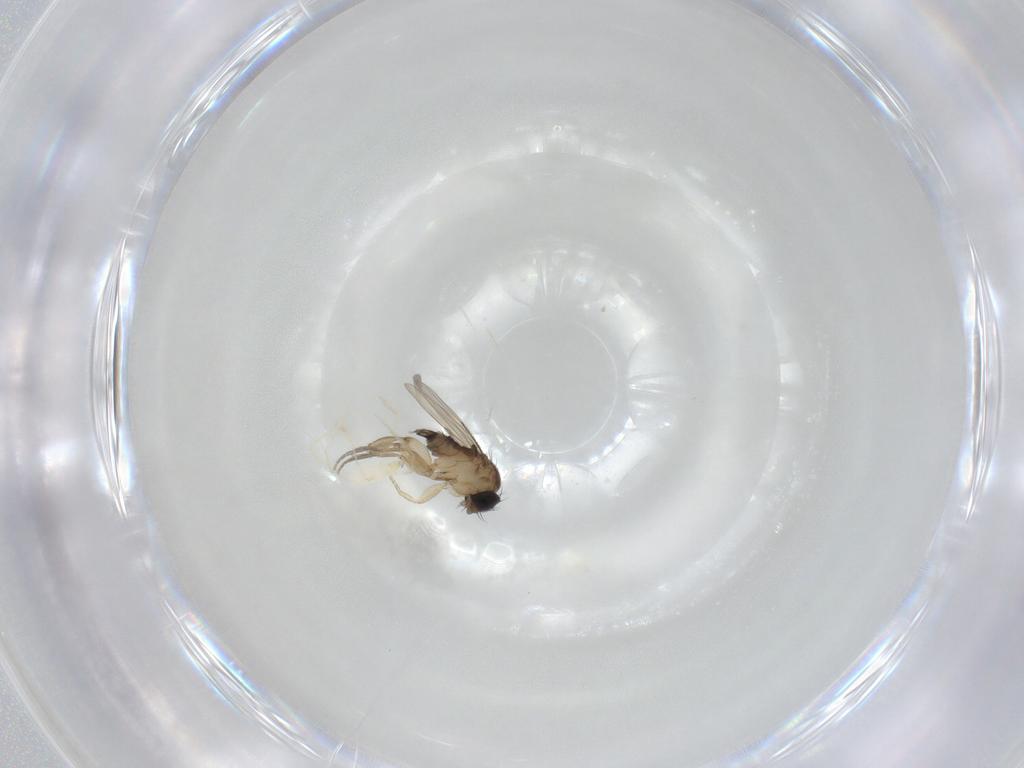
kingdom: Animalia
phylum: Arthropoda
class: Insecta
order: Diptera
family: Phoridae
